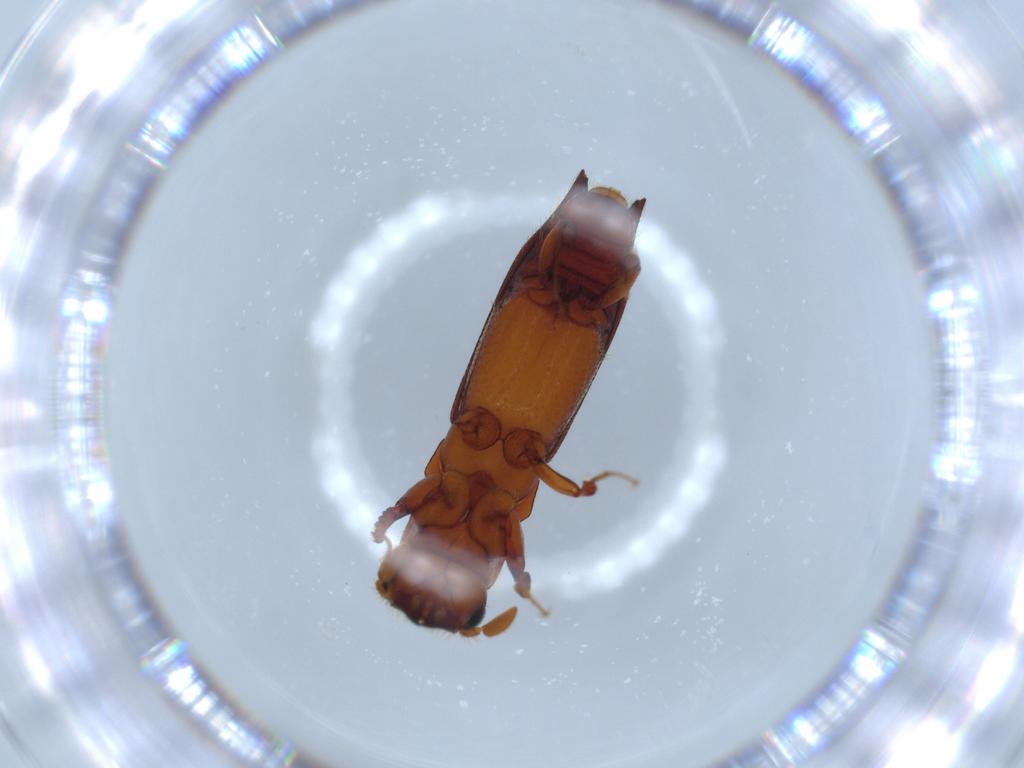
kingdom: Animalia
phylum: Arthropoda
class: Insecta
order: Coleoptera
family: Curculionidae
